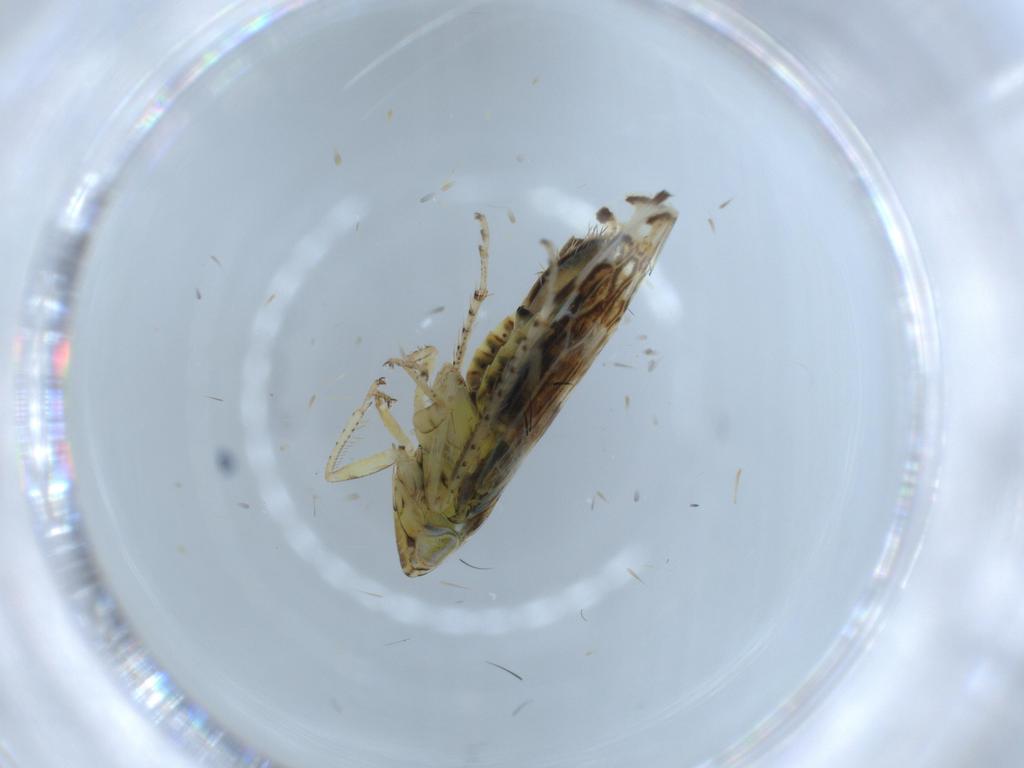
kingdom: Animalia
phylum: Arthropoda
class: Insecta
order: Hemiptera
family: Cicadellidae
